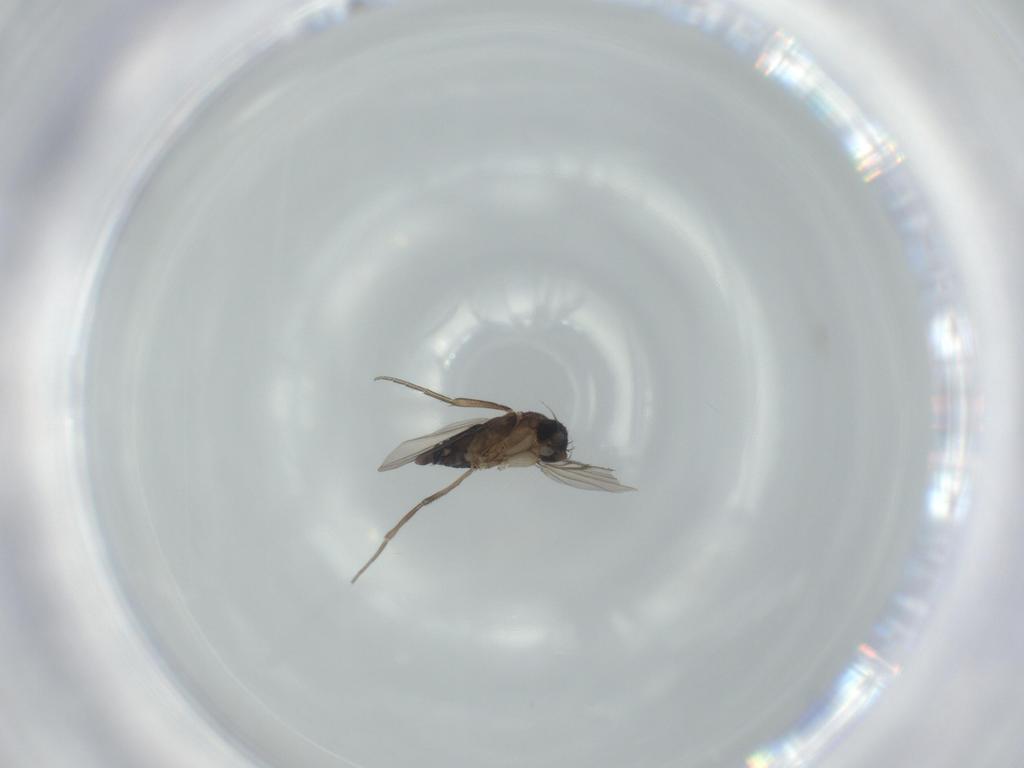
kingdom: Animalia
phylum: Arthropoda
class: Insecta
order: Diptera
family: Phoridae
